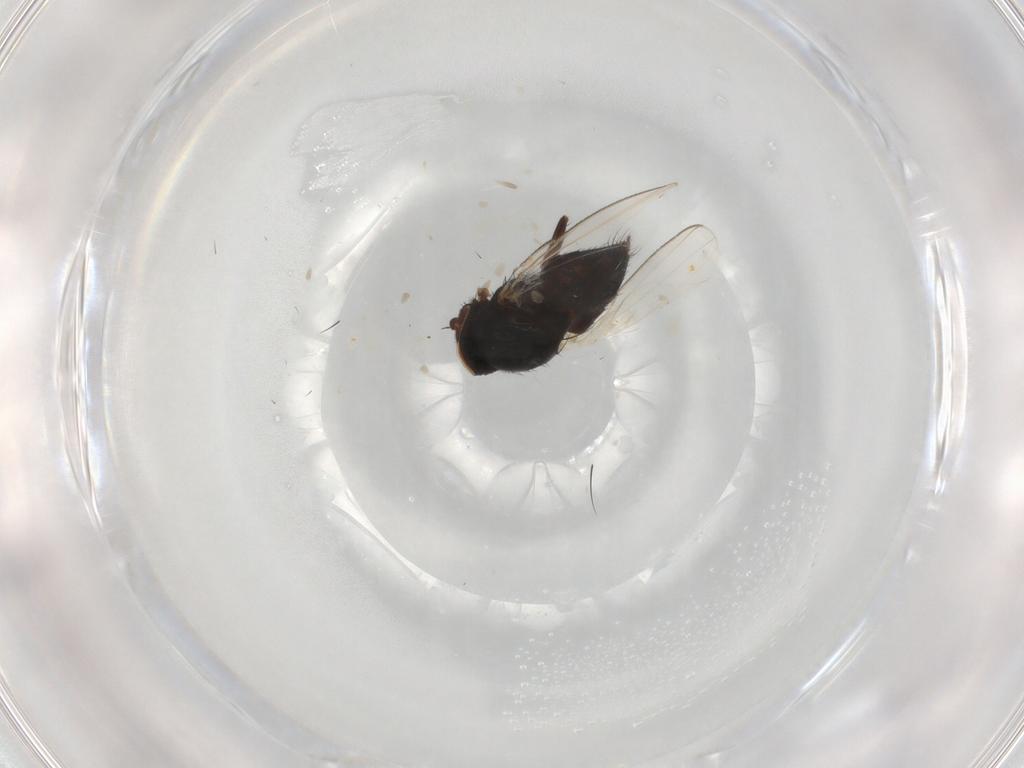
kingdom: Animalia
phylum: Arthropoda
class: Insecta
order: Diptera
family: Milichiidae
